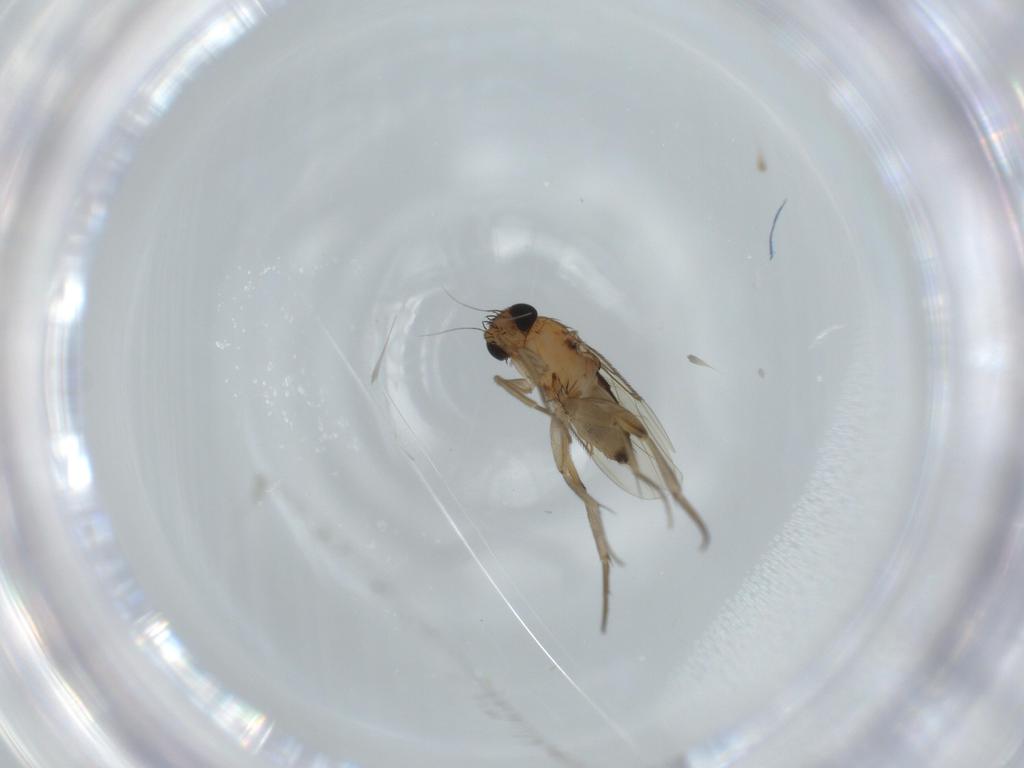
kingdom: Animalia
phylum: Arthropoda
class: Insecta
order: Diptera
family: Phoridae
